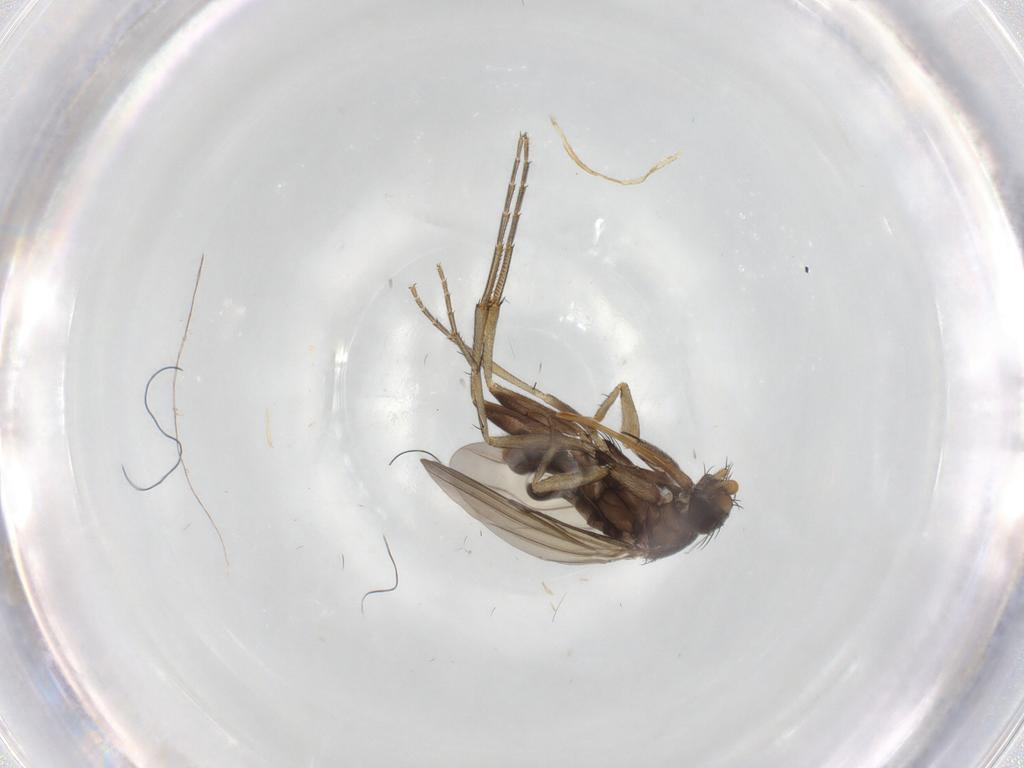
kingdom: Animalia
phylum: Arthropoda
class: Insecta
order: Diptera
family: Phoridae
